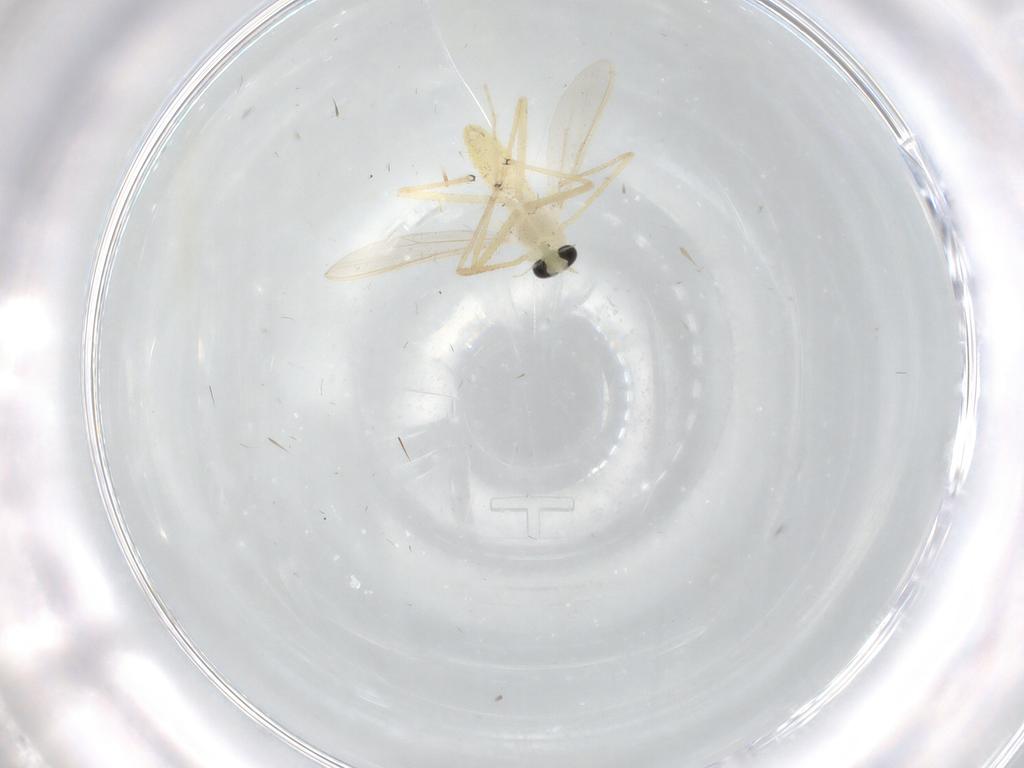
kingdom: Animalia
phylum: Arthropoda
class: Insecta
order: Diptera
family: Chironomidae
